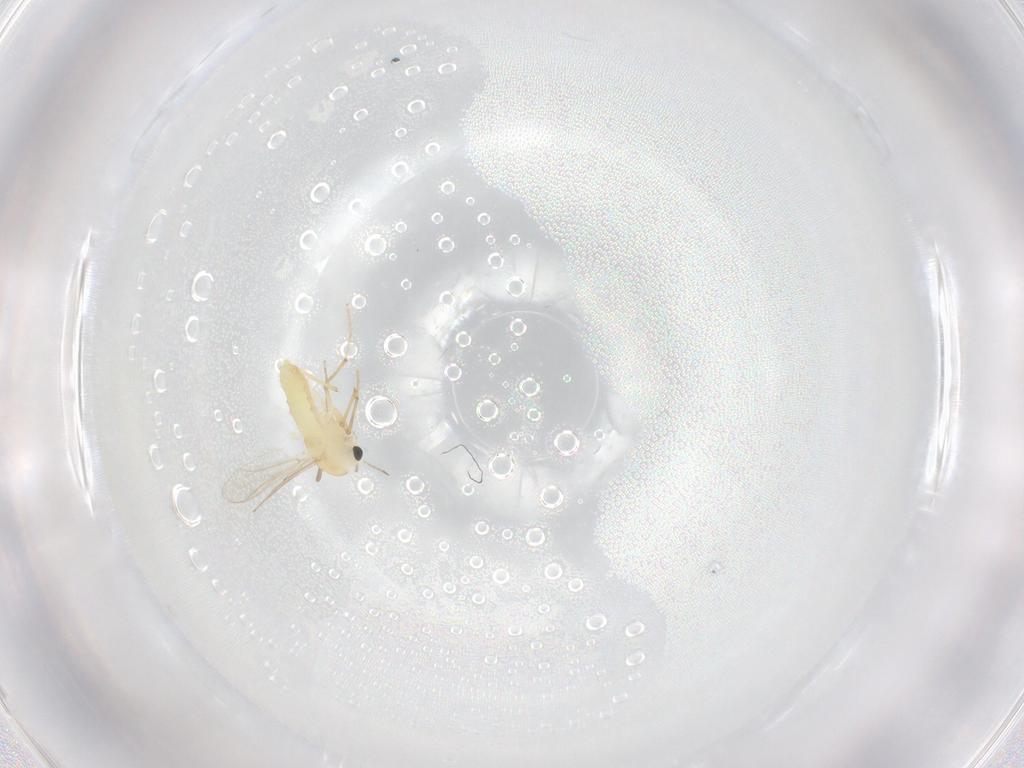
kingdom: Animalia
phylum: Arthropoda
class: Insecta
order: Diptera
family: Chironomidae
